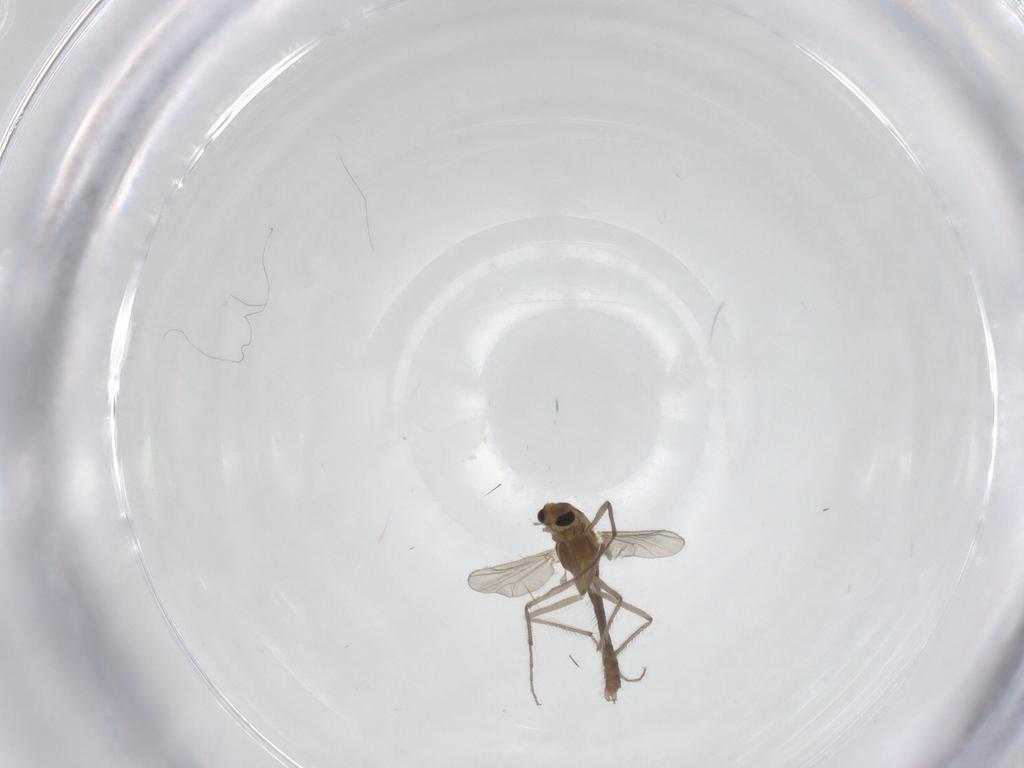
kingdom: Animalia
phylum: Arthropoda
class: Insecta
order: Diptera
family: Chironomidae
